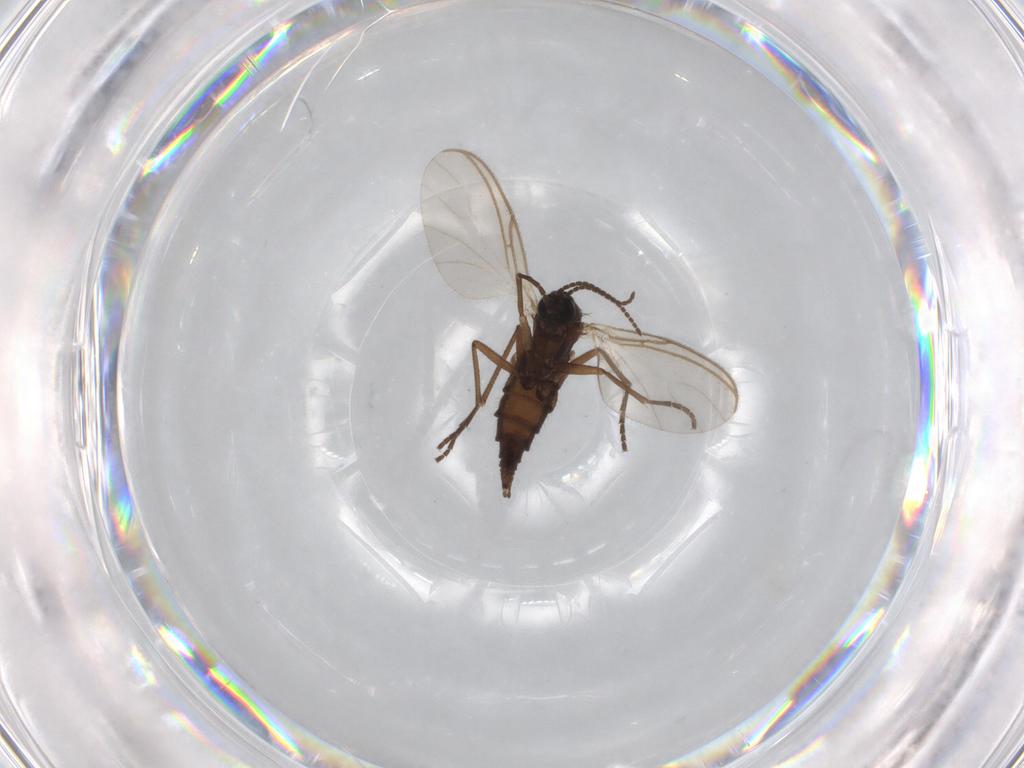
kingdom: Animalia
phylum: Arthropoda
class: Insecta
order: Diptera
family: Sciaridae
